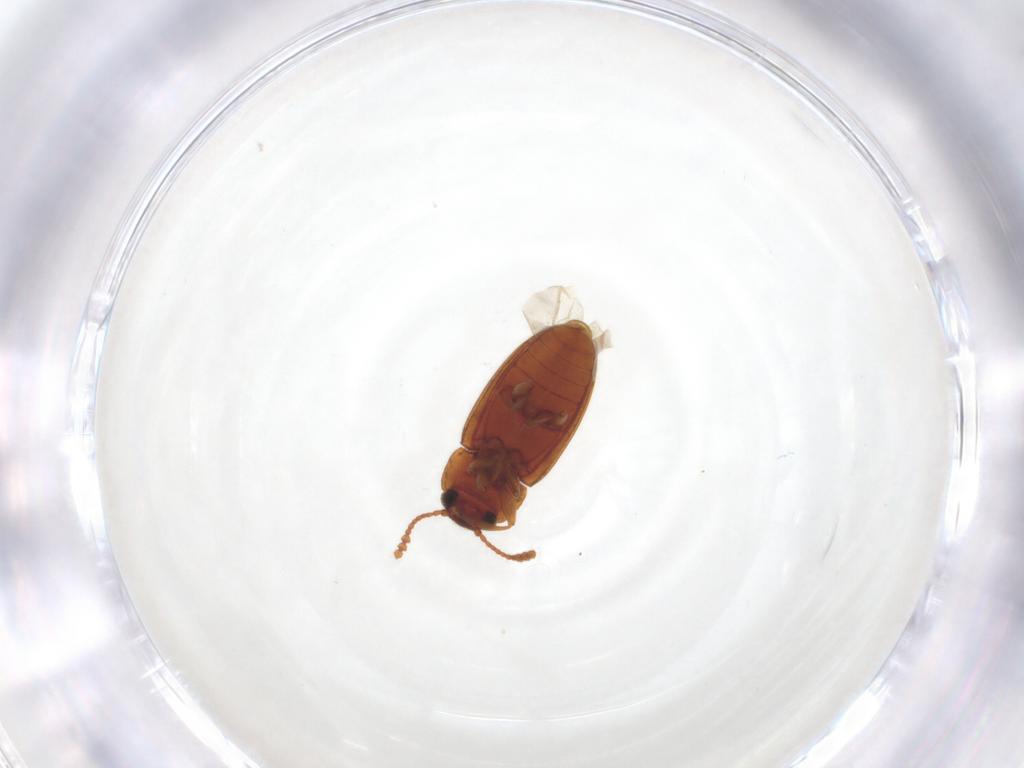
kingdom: Animalia
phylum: Arthropoda
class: Insecta
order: Coleoptera
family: Erotylidae
